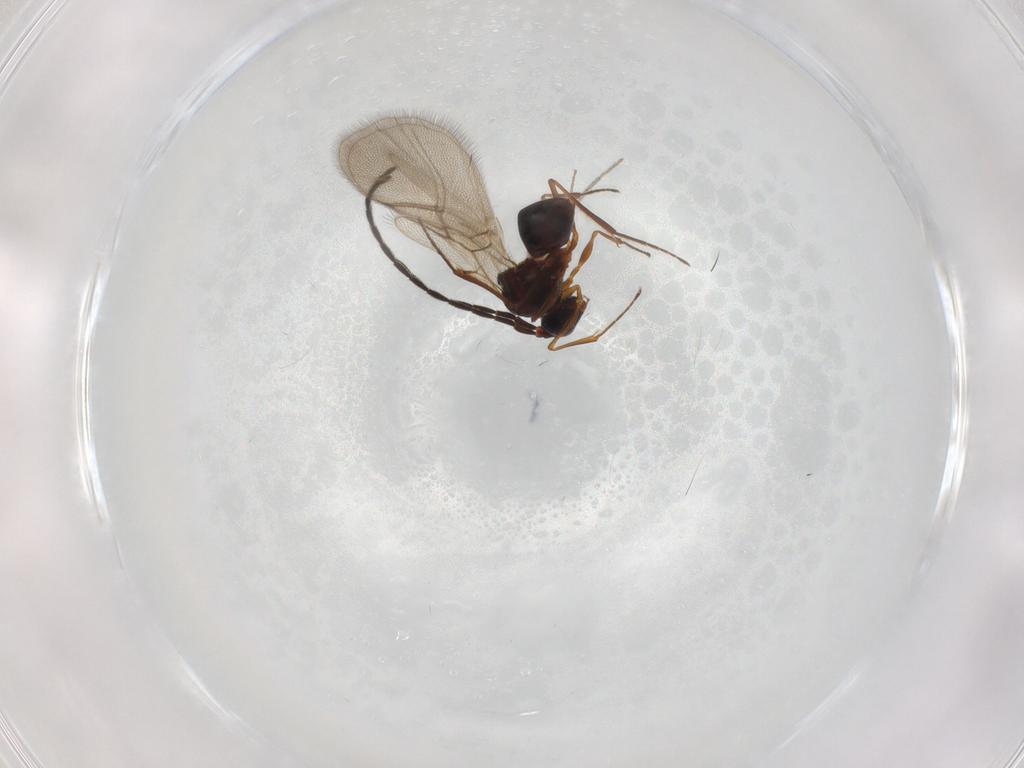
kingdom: Animalia
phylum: Arthropoda
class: Insecta
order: Hymenoptera
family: Figitidae
